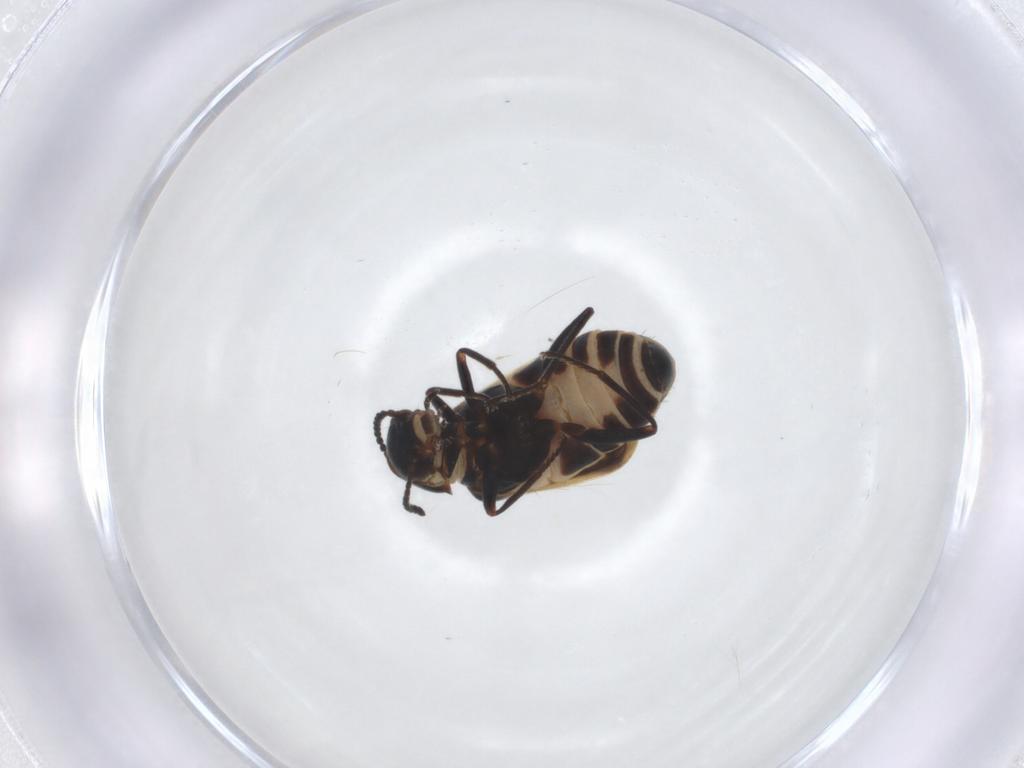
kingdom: Animalia
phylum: Arthropoda
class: Insecta
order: Coleoptera
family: Melyridae
